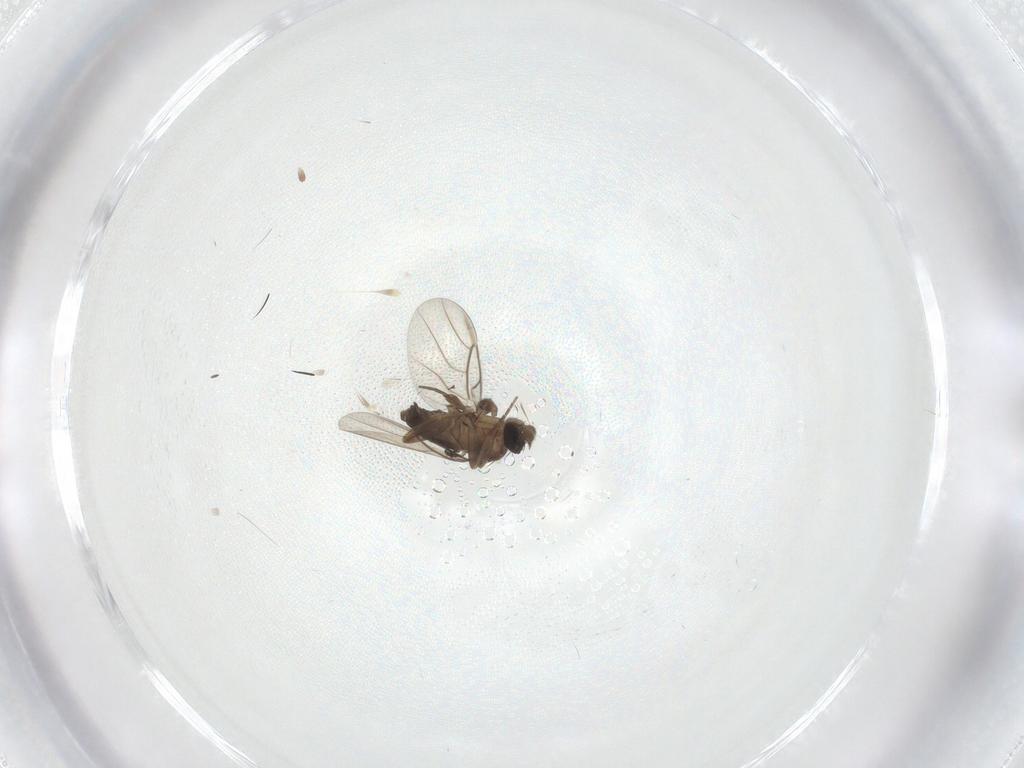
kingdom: Animalia
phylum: Arthropoda
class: Insecta
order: Diptera
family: Phoridae
